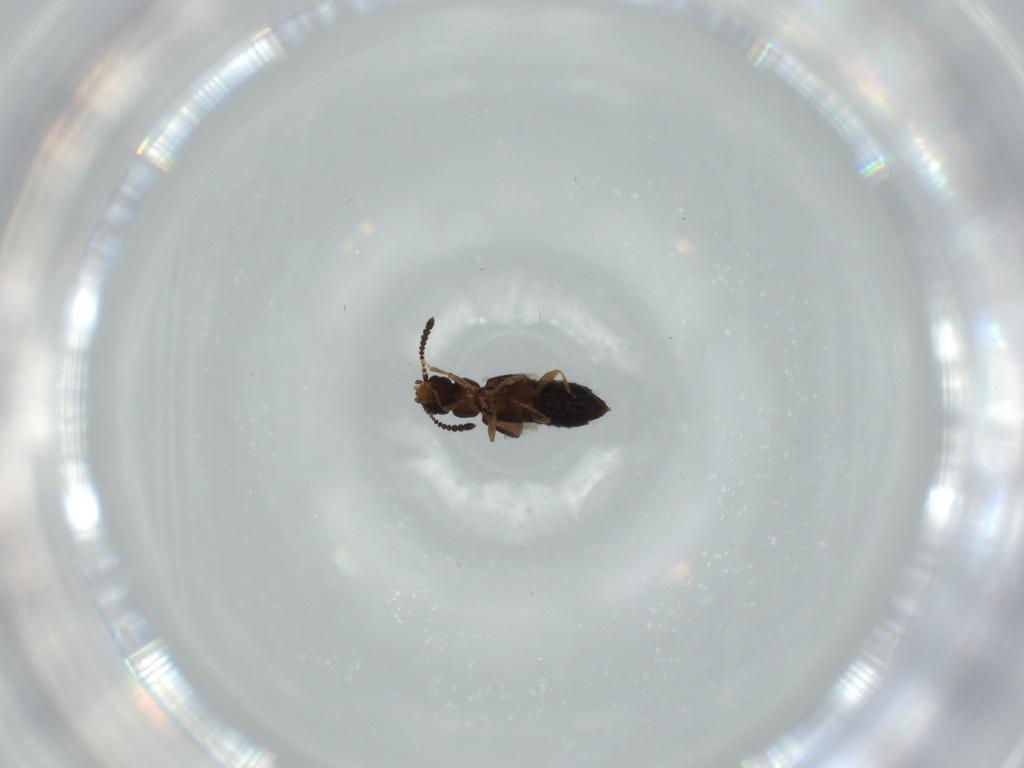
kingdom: Animalia
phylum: Arthropoda
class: Insecta
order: Coleoptera
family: Staphylinidae
